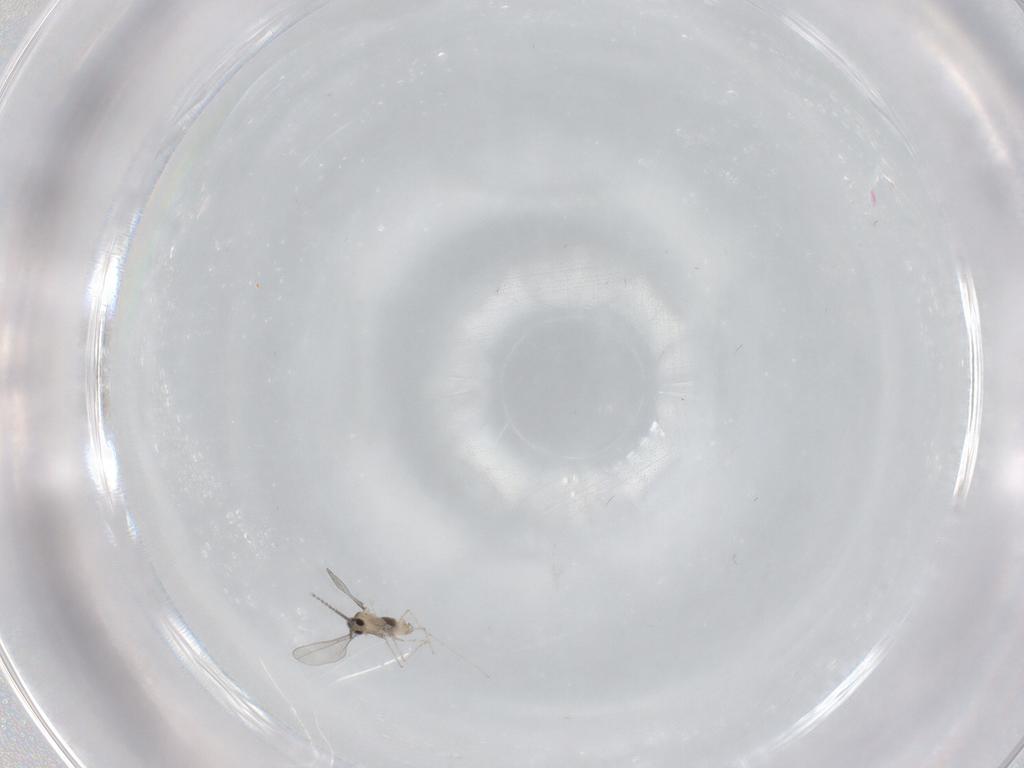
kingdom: Animalia
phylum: Arthropoda
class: Insecta
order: Diptera
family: Cecidomyiidae
